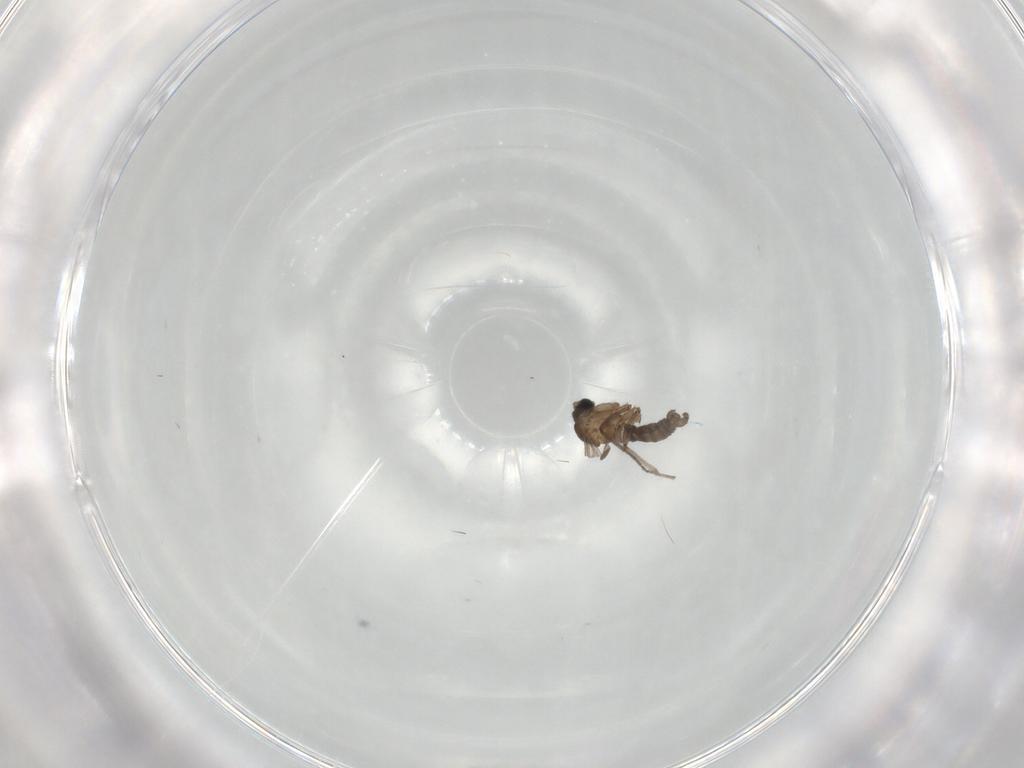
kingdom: Animalia
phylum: Arthropoda
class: Insecta
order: Diptera
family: Sciaridae
